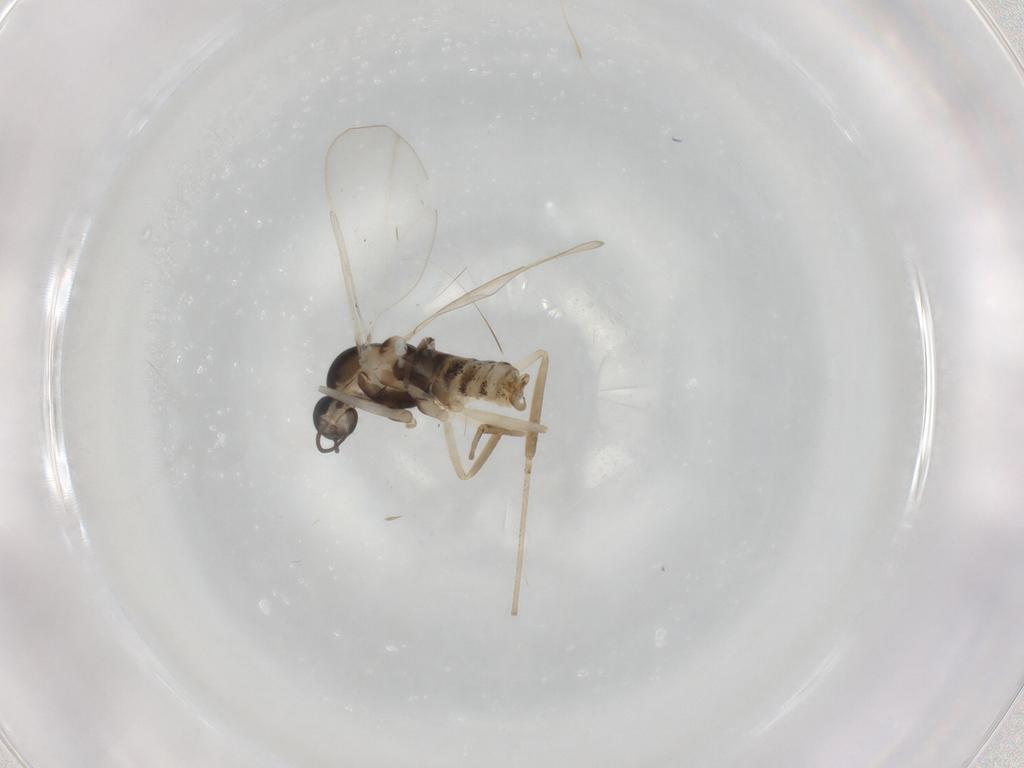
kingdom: Animalia
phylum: Arthropoda
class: Insecta
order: Diptera
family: Cecidomyiidae
